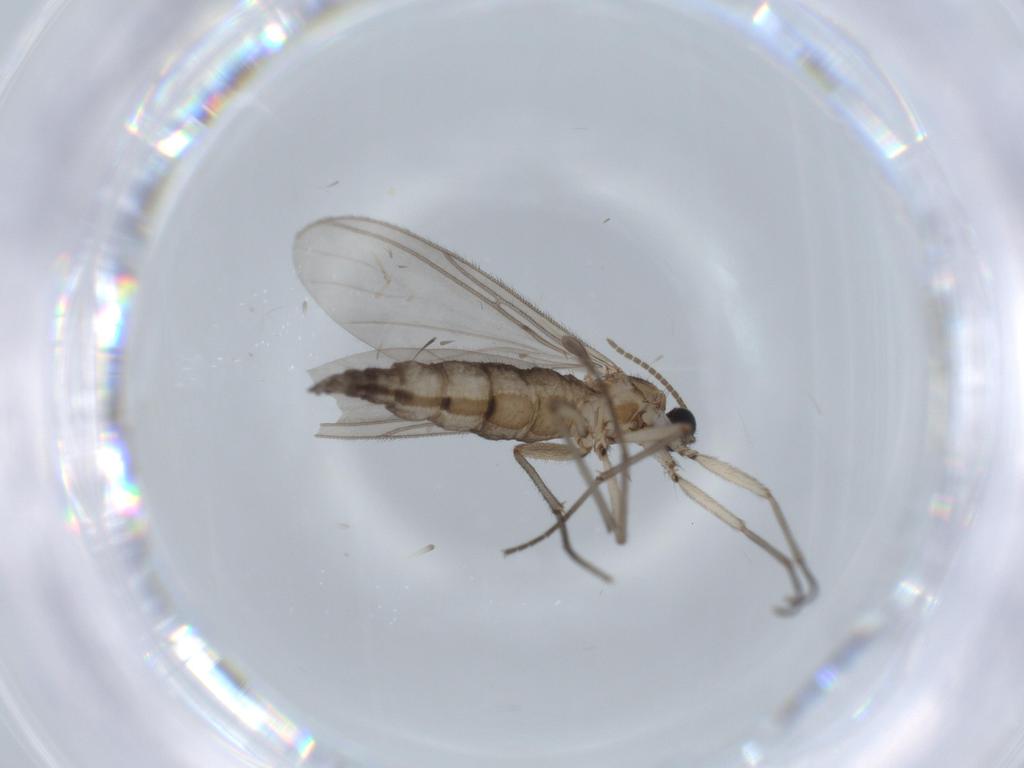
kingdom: Animalia
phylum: Arthropoda
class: Insecta
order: Diptera
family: Sciaridae
